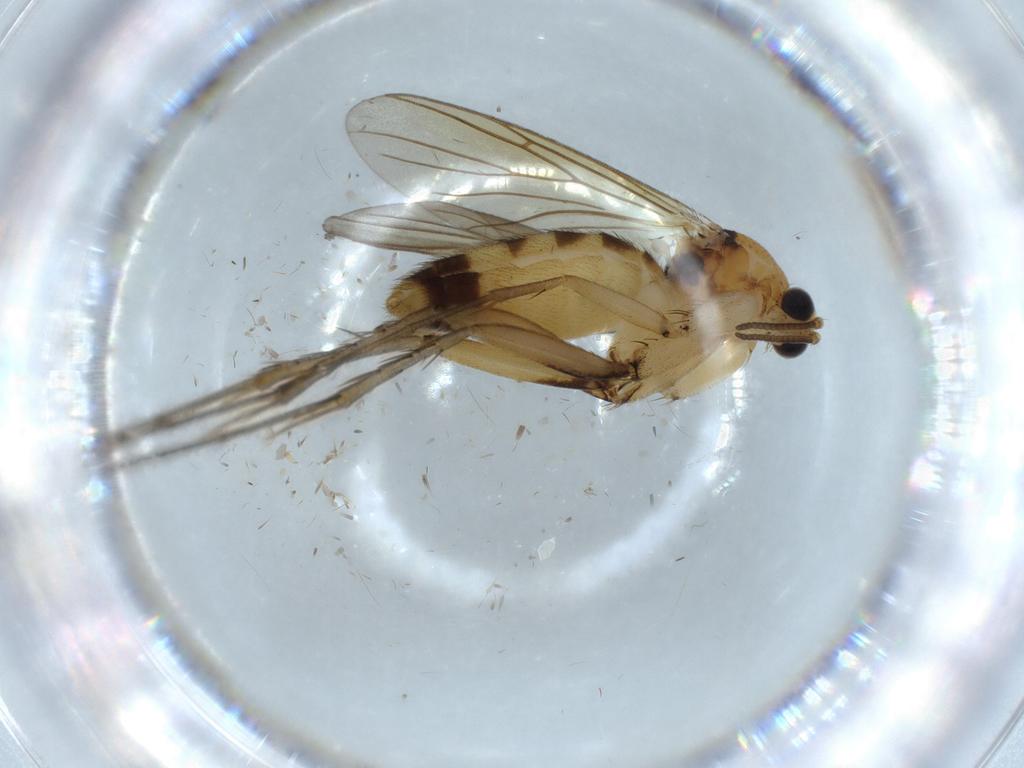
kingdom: Animalia
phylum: Arthropoda
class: Insecta
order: Diptera
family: Ceratopogonidae
